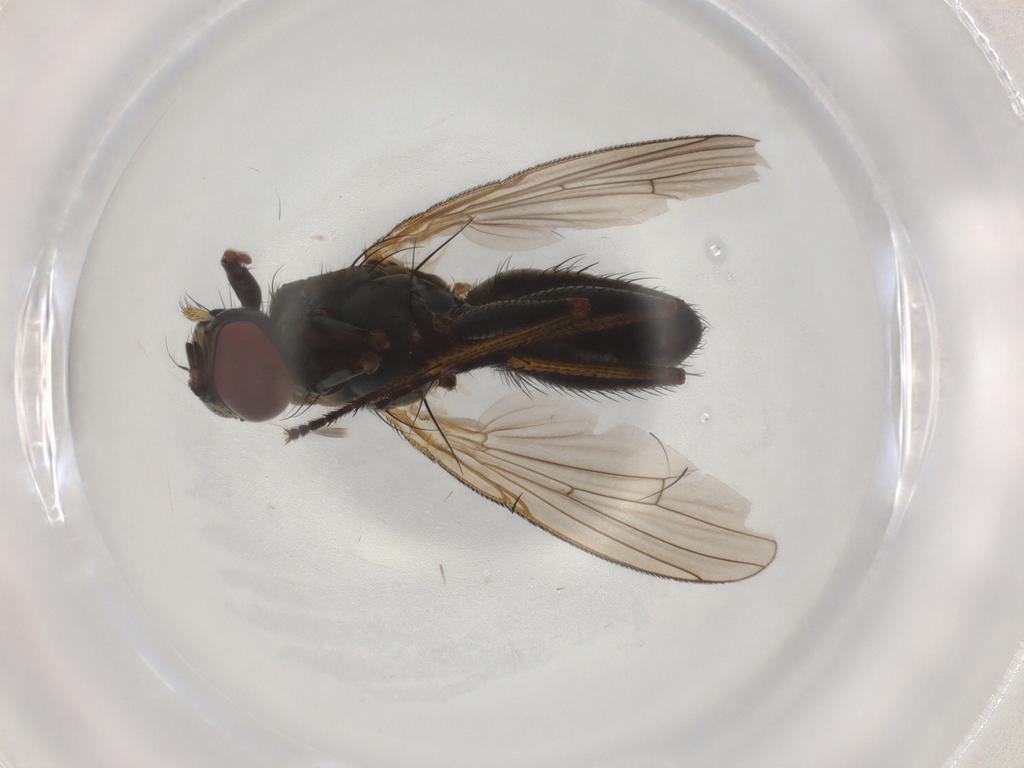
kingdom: Animalia
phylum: Arthropoda
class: Insecta
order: Diptera
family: Muscidae
